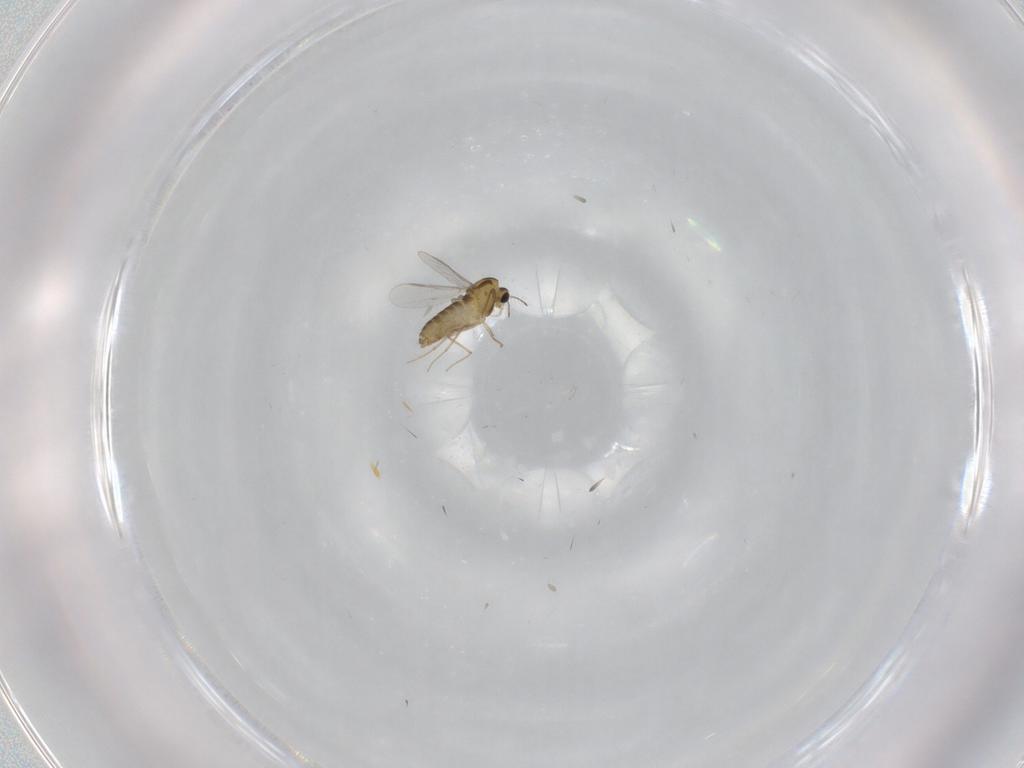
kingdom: Animalia
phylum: Arthropoda
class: Insecta
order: Diptera
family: Chironomidae
